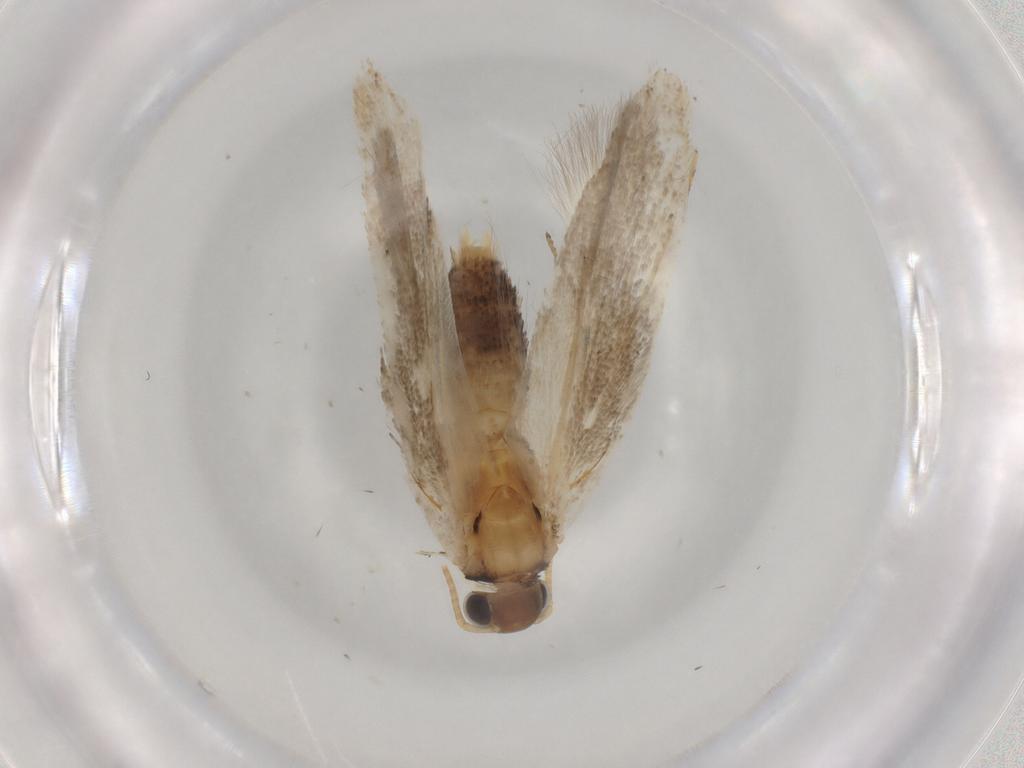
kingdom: Animalia
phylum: Arthropoda
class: Insecta
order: Lepidoptera
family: Gelechiidae
